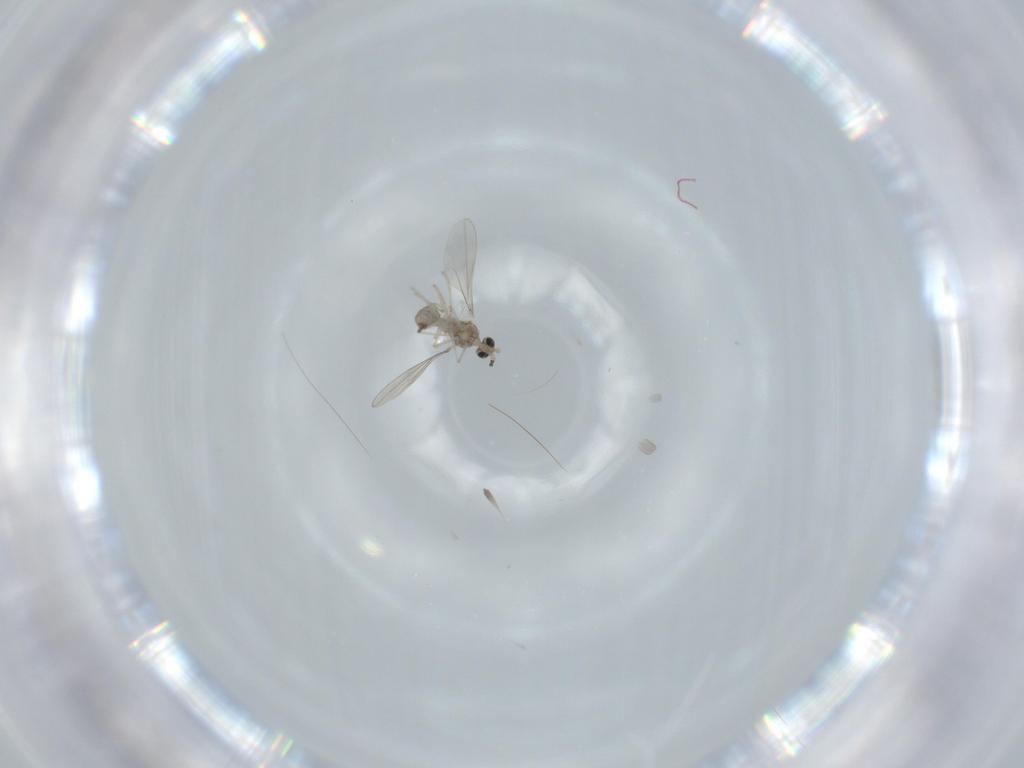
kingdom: Animalia
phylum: Arthropoda
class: Insecta
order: Diptera
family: Cecidomyiidae
